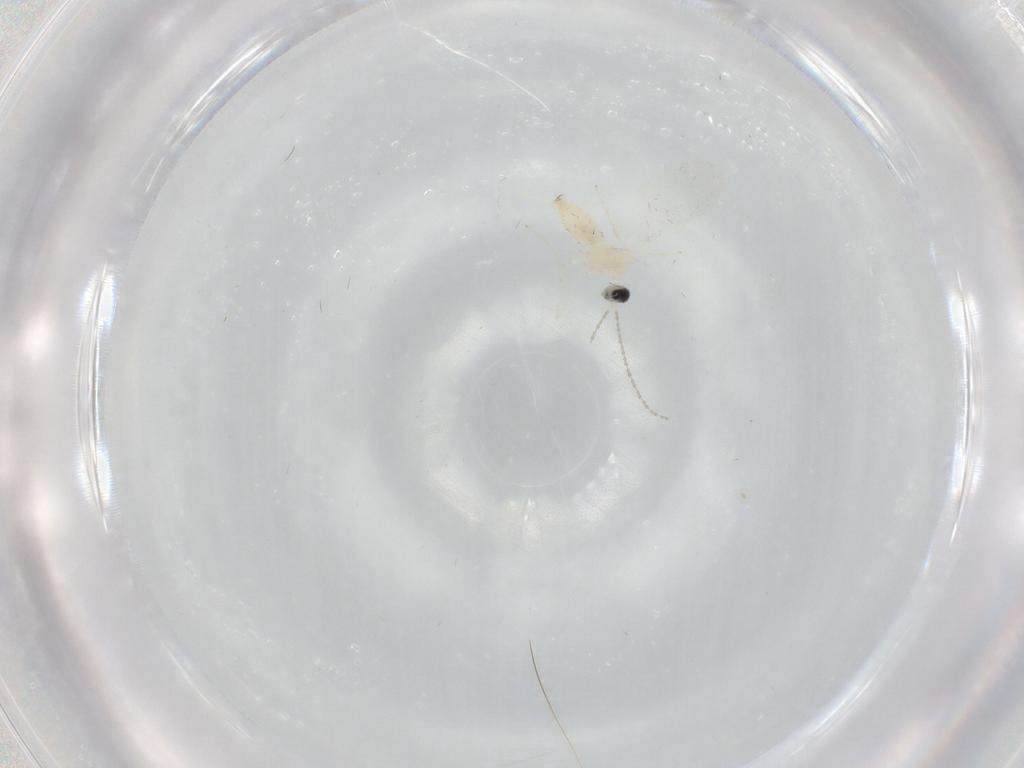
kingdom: Animalia
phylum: Arthropoda
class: Insecta
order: Diptera
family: Cecidomyiidae
